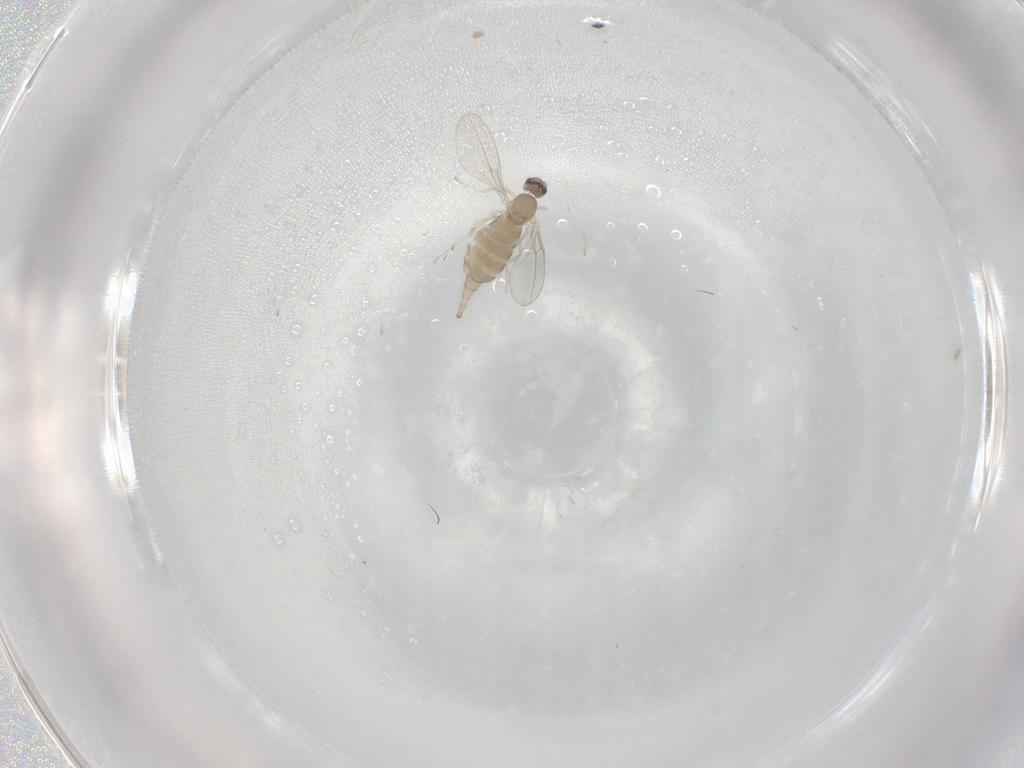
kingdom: Animalia
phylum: Arthropoda
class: Insecta
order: Diptera
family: Cecidomyiidae
